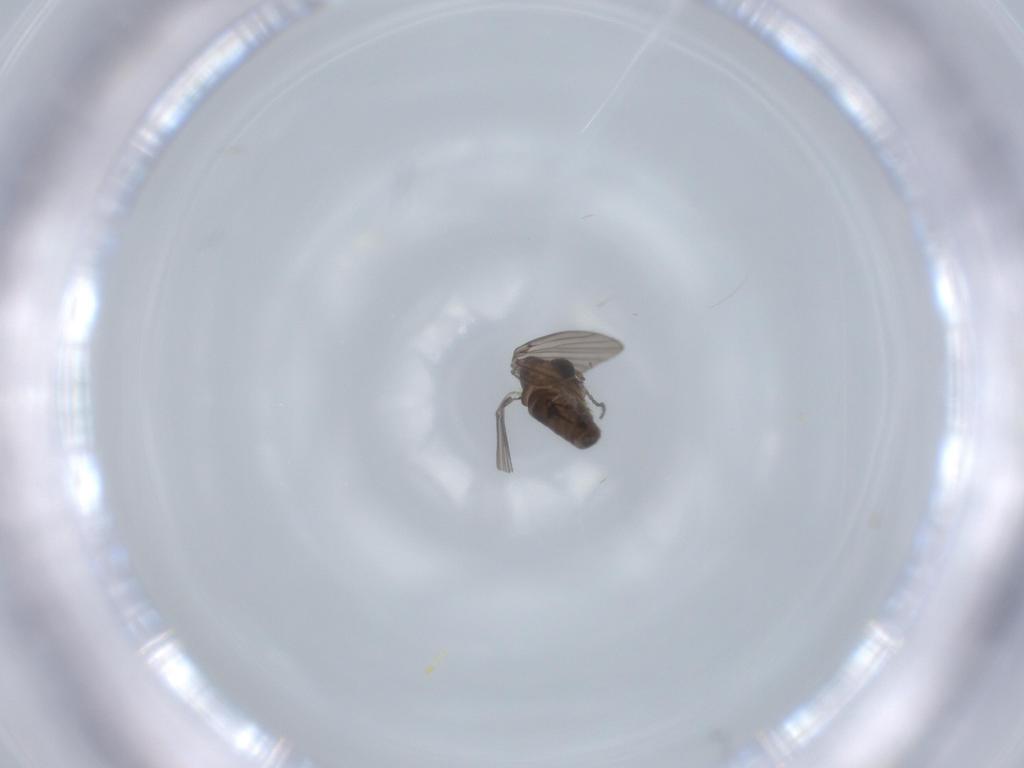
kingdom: Animalia
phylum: Arthropoda
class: Insecta
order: Diptera
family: Psychodidae
